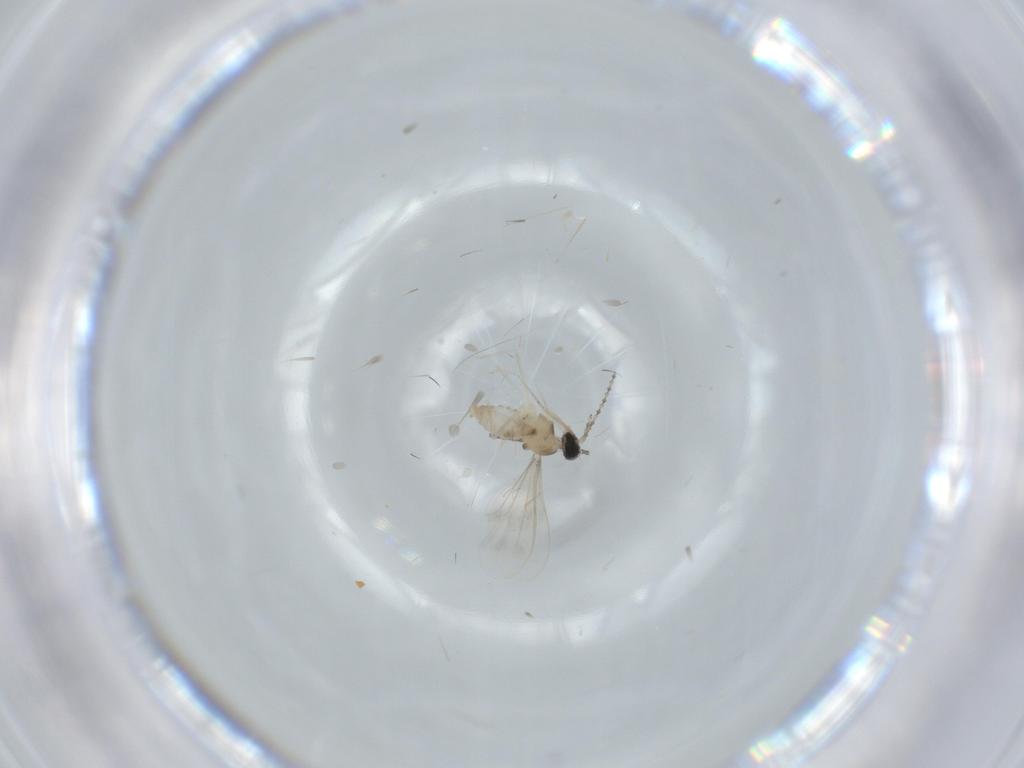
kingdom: Animalia
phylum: Arthropoda
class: Insecta
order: Diptera
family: Cecidomyiidae
